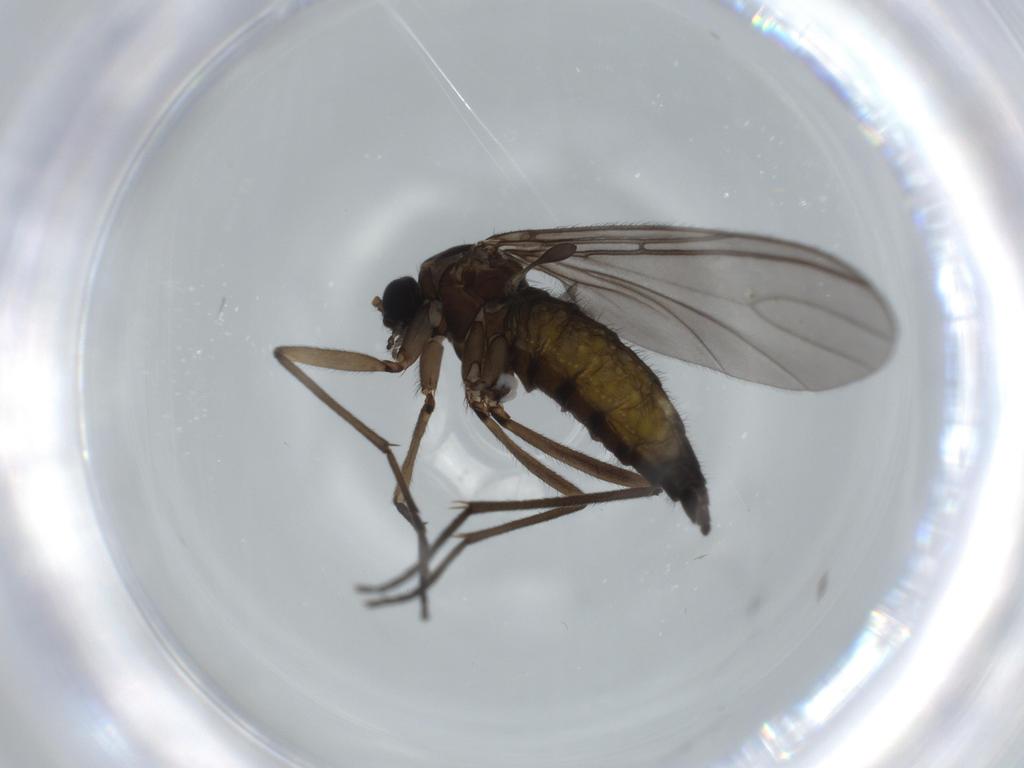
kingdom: Animalia
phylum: Arthropoda
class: Insecta
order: Diptera
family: Sciaridae
